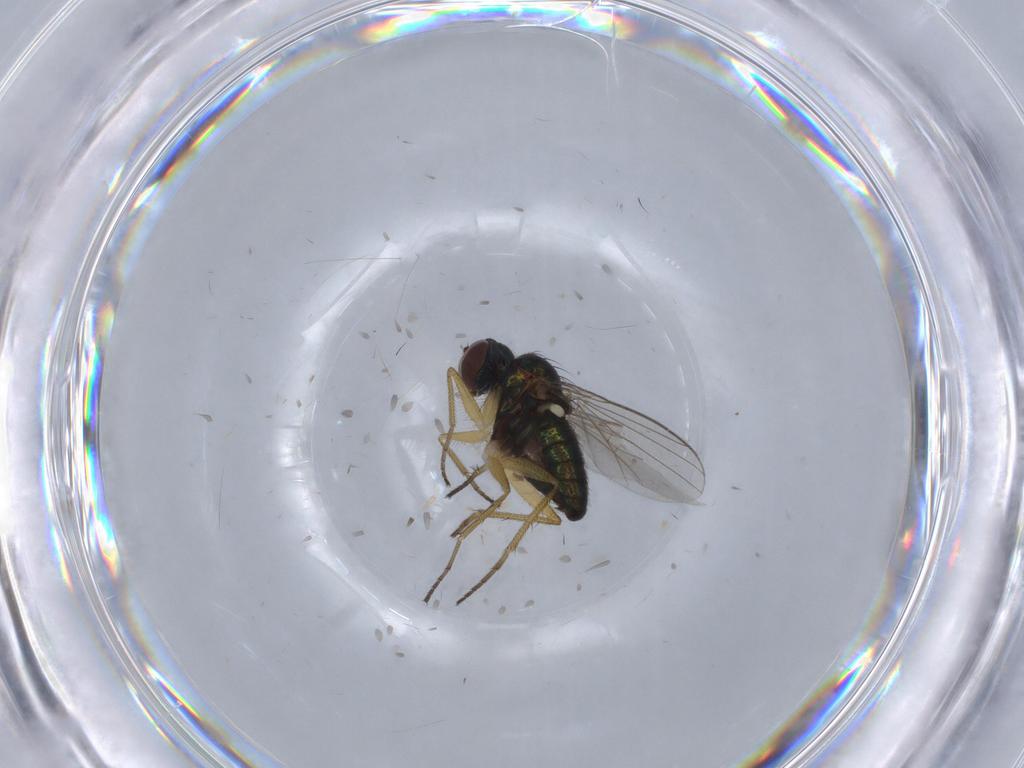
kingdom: Animalia
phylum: Arthropoda
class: Insecta
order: Diptera
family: Dolichopodidae
